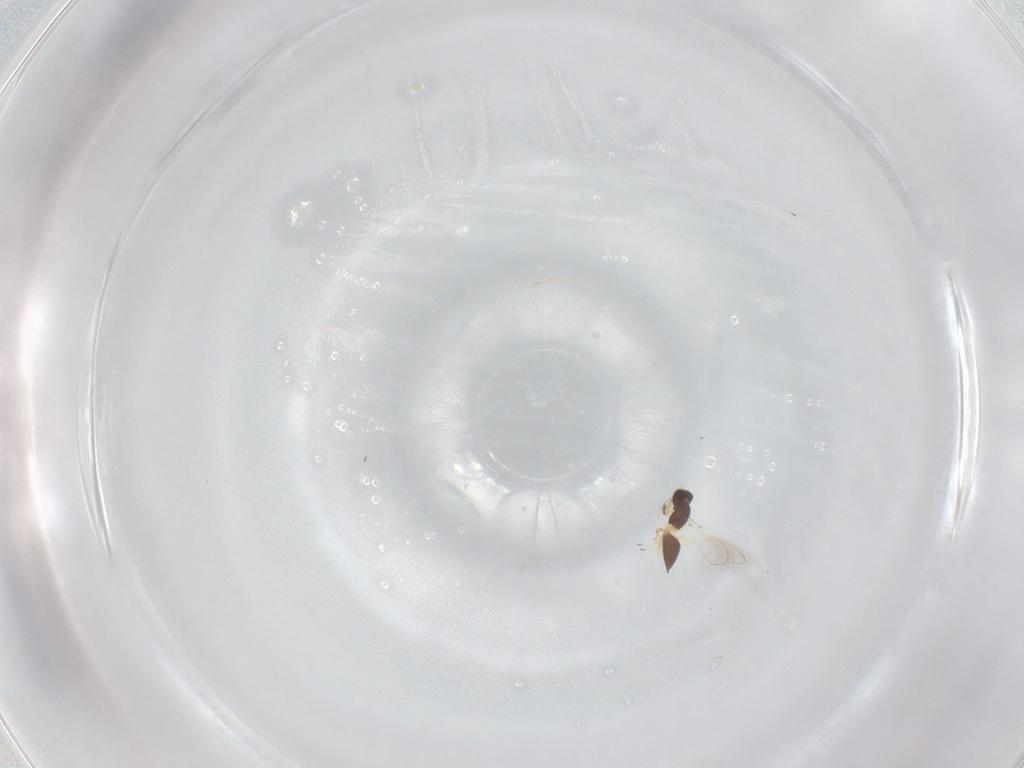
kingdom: Animalia
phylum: Arthropoda
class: Insecta
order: Hymenoptera
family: Mymaridae
